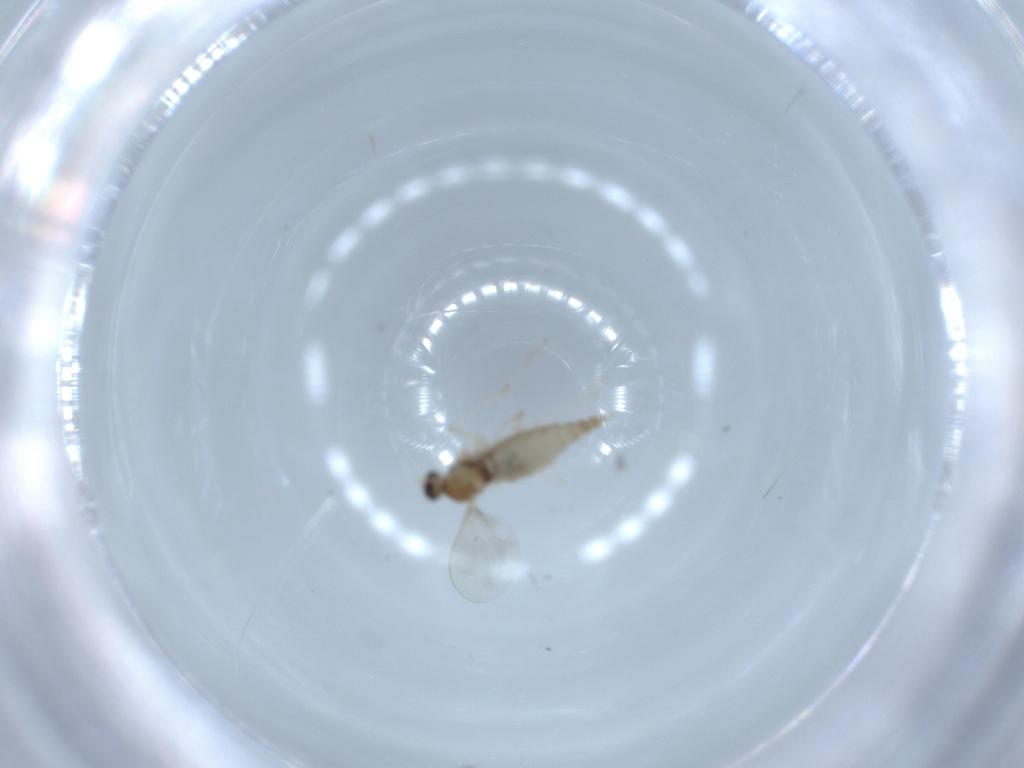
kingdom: Animalia
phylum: Arthropoda
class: Insecta
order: Diptera
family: Cecidomyiidae
